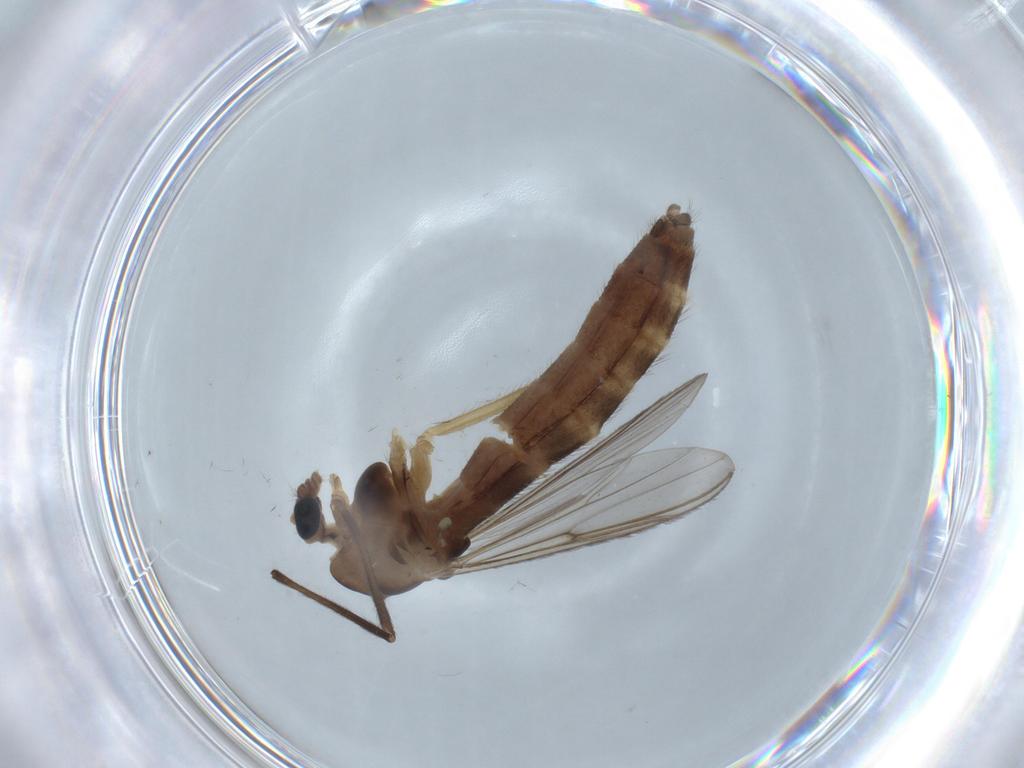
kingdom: Animalia
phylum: Arthropoda
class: Insecta
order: Diptera
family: Cecidomyiidae
